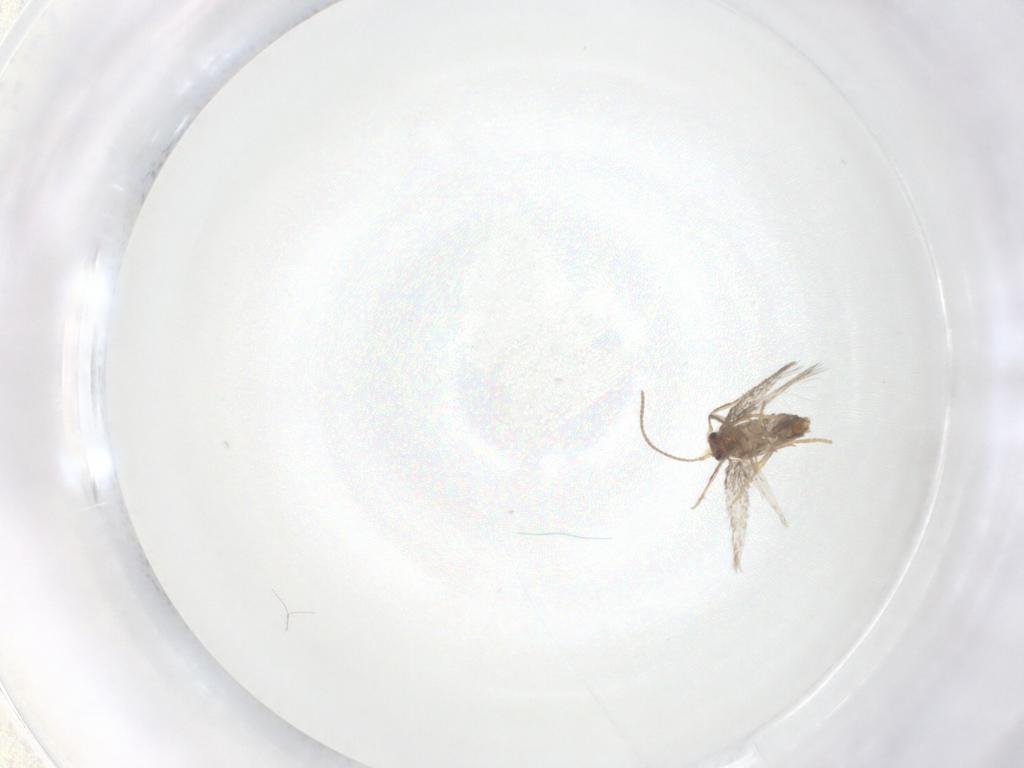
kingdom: Animalia
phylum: Arthropoda
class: Insecta
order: Lepidoptera
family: Nepticulidae
